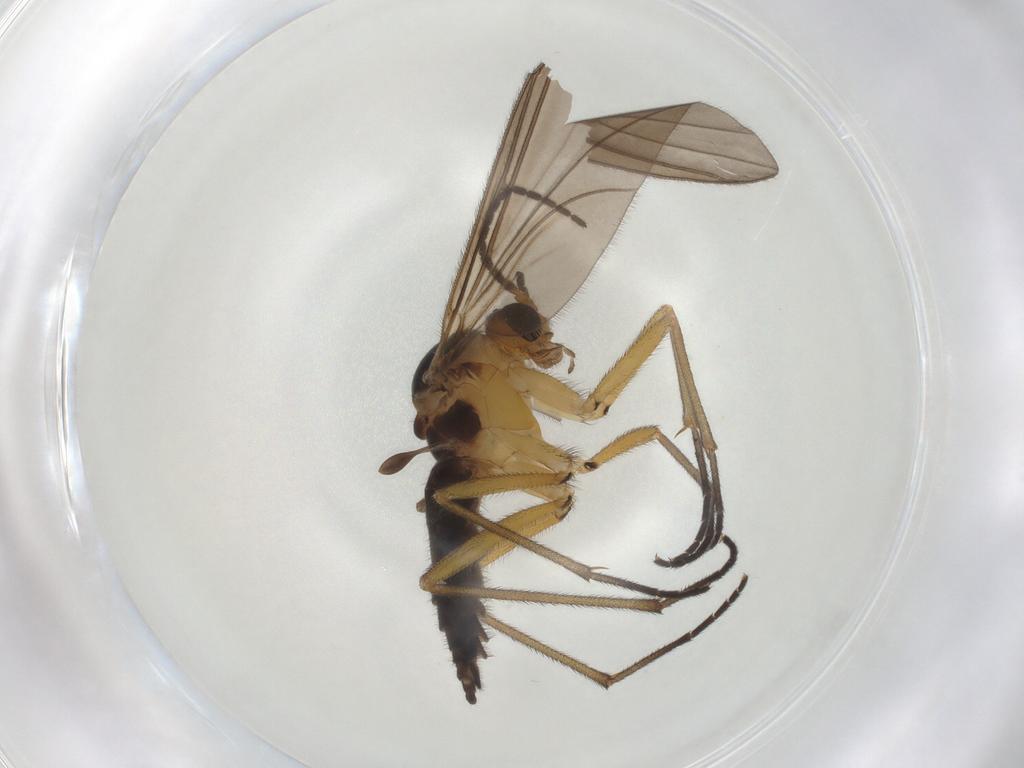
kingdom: Animalia
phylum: Arthropoda
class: Insecta
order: Diptera
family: Sciaridae
